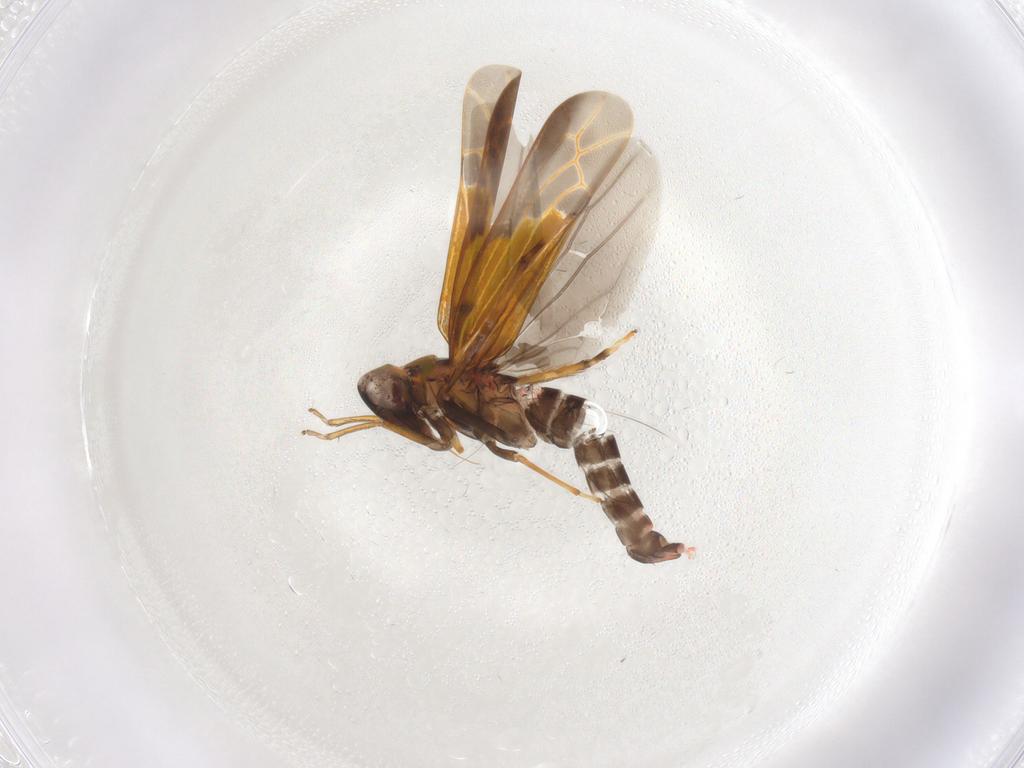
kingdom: Animalia
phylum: Arthropoda
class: Insecta
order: Hemiptera
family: Cicadellidae
